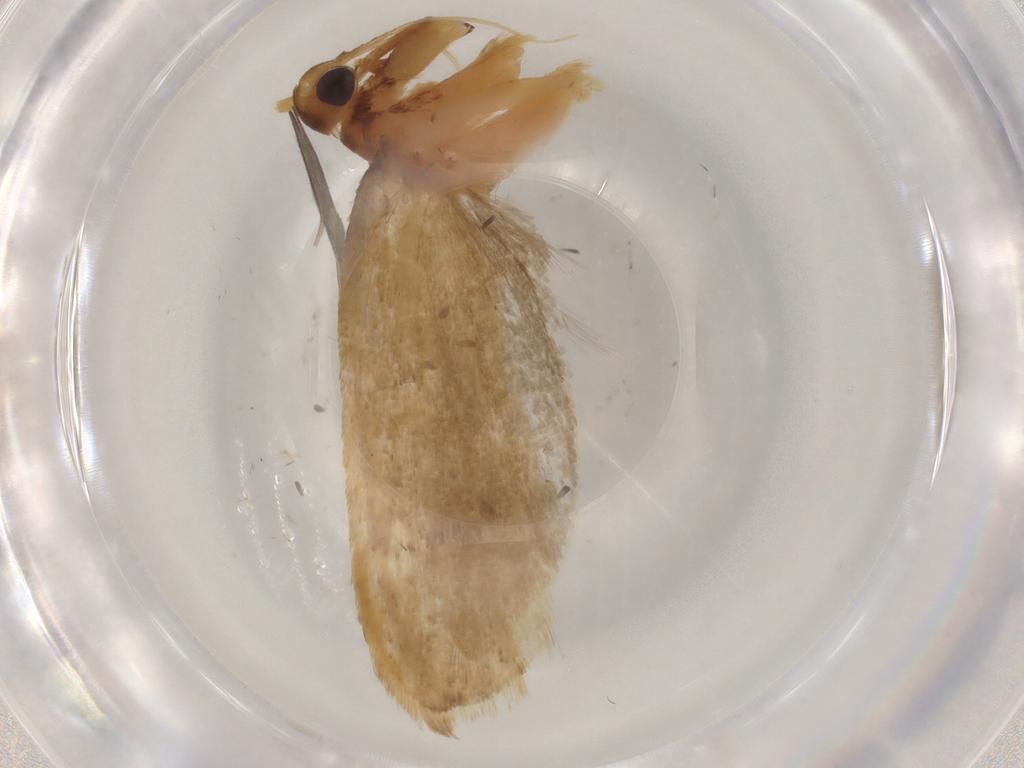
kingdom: Animalia
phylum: Arthropoda
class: Insecta
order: Lepidoptera
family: Lecithoceridae
